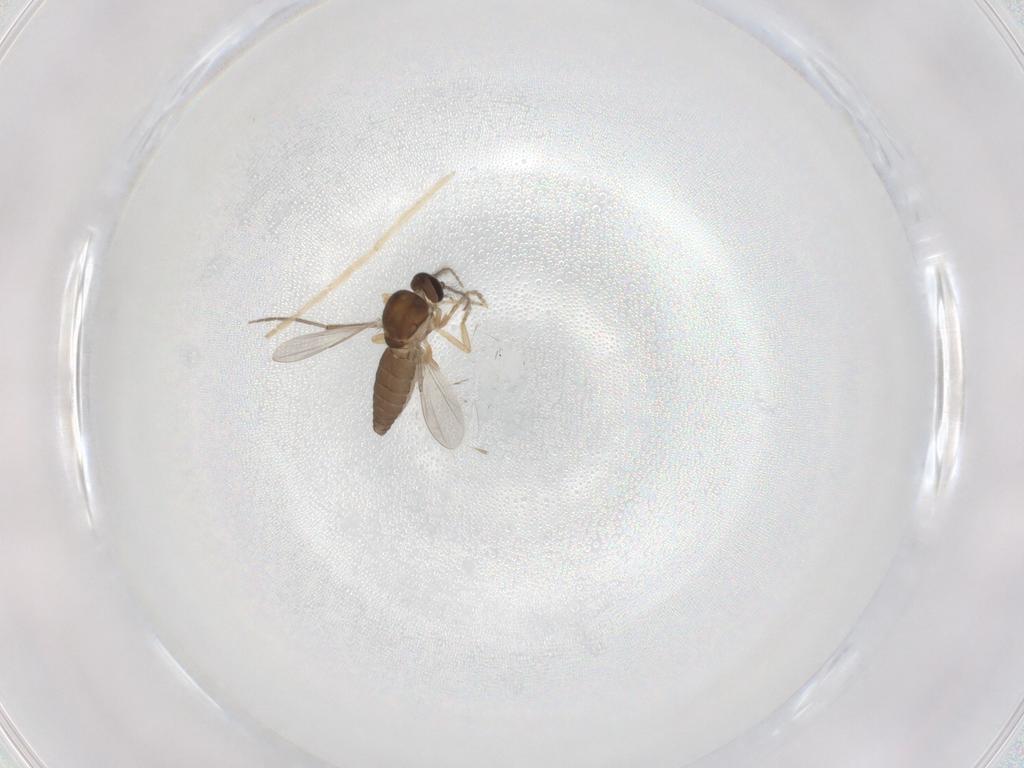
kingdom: Animalia
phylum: Arthropoda
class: Insecta
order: Diptera
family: Ceratopogonidae
